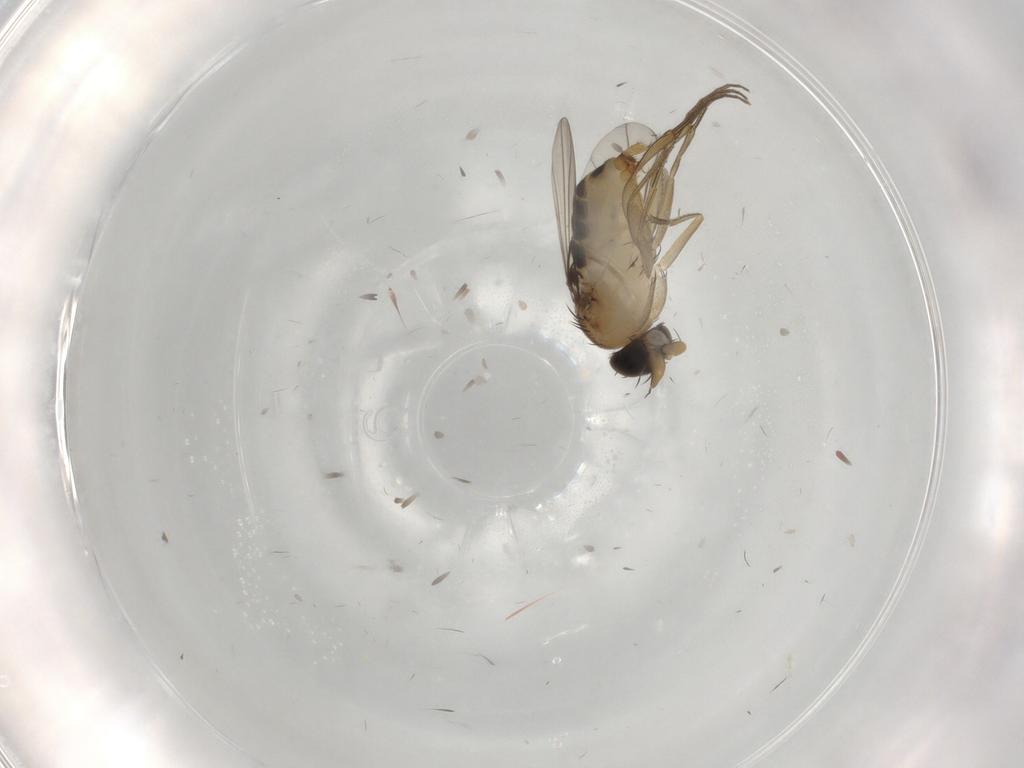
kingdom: Animalia
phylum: Arthropoda
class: Insecta
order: Diptera
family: Phoridae
